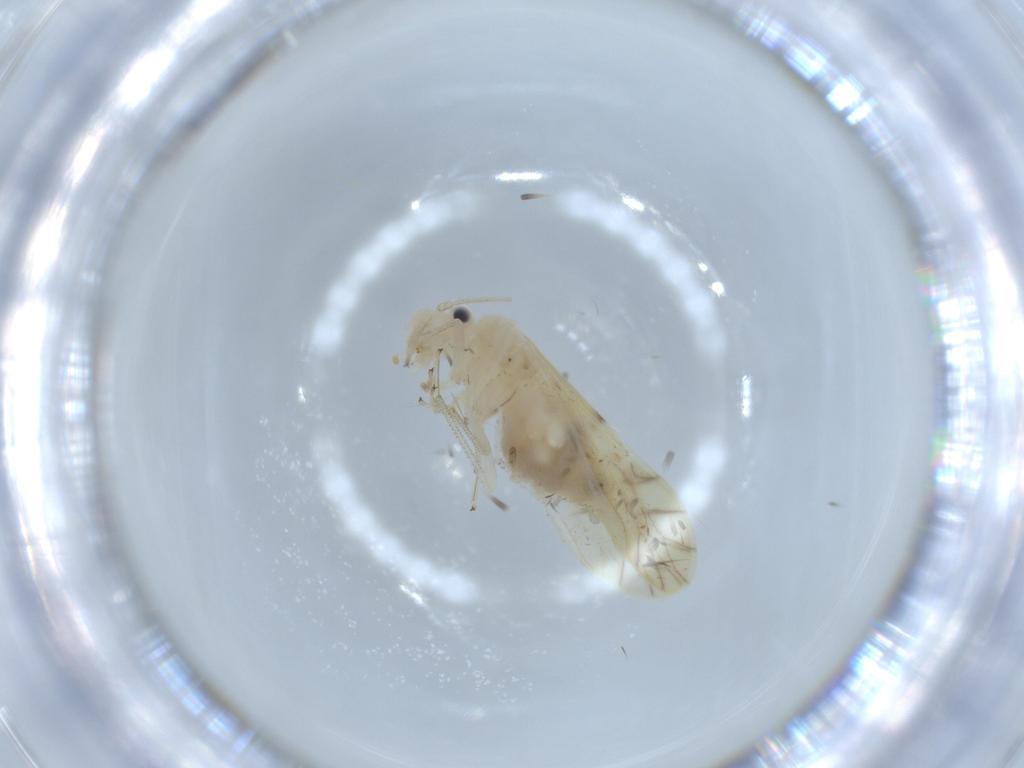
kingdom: Animalia
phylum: Arthropoda
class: Insecta
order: Psocodea
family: Caeciliusidae
